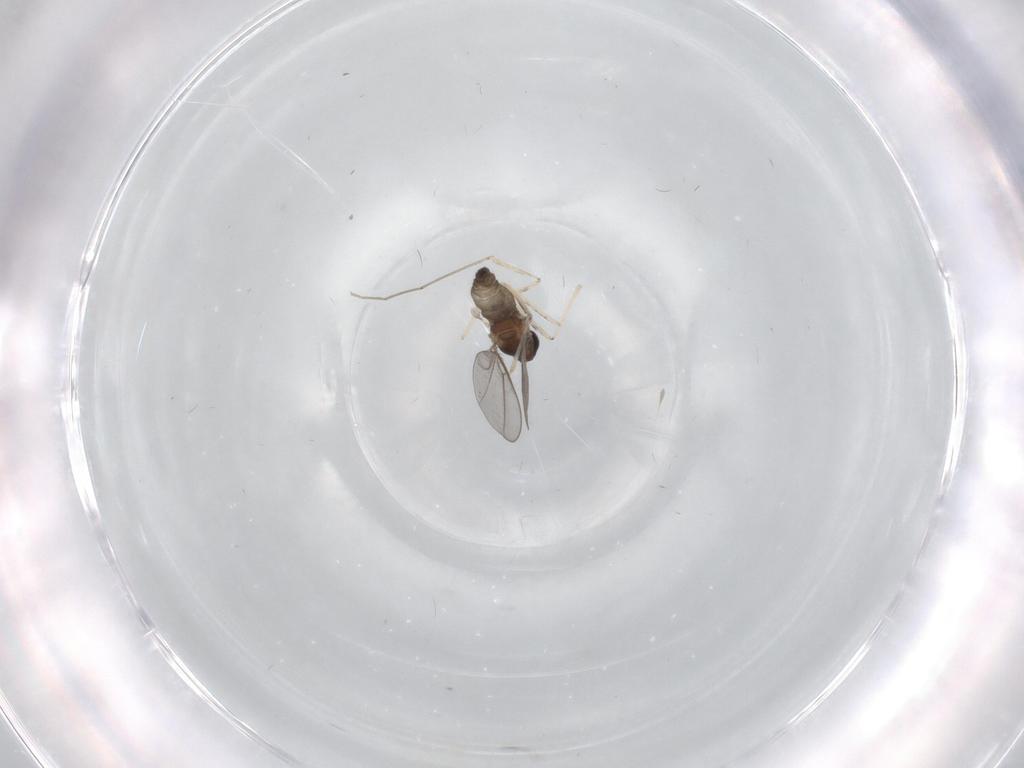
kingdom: Animalia
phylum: Arthropoda
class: Insecta
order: Diptera
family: Cecidomyiidae
